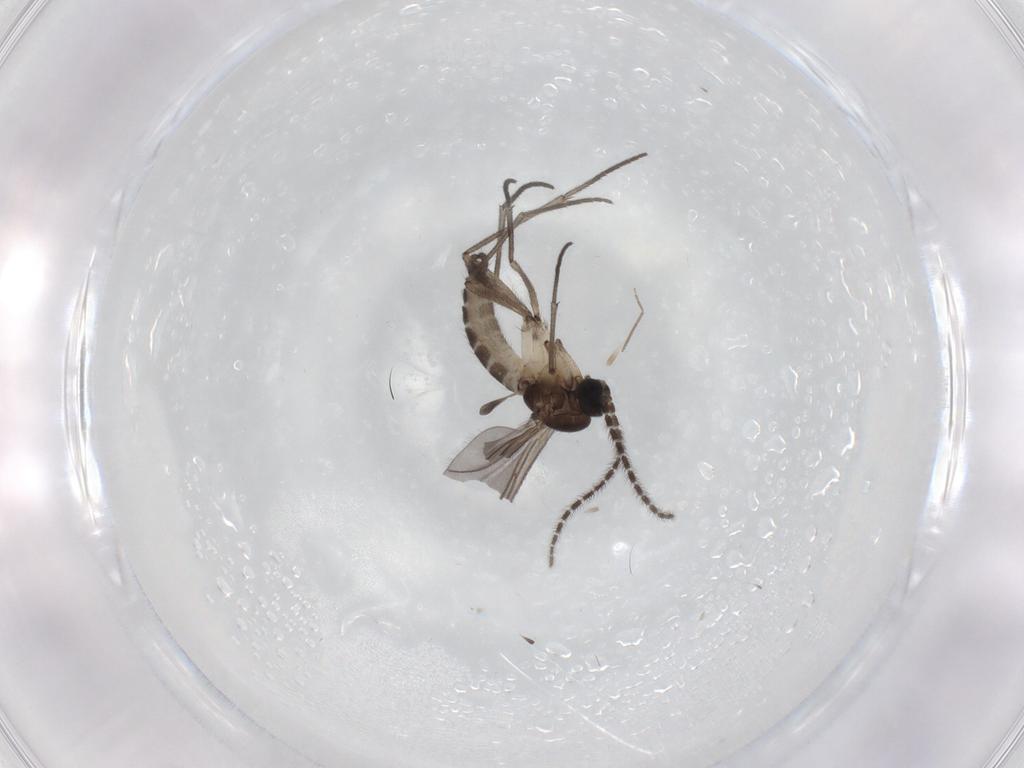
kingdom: Animalia
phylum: Arthropoda
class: Insecta
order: Diptera
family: Sciaridae
